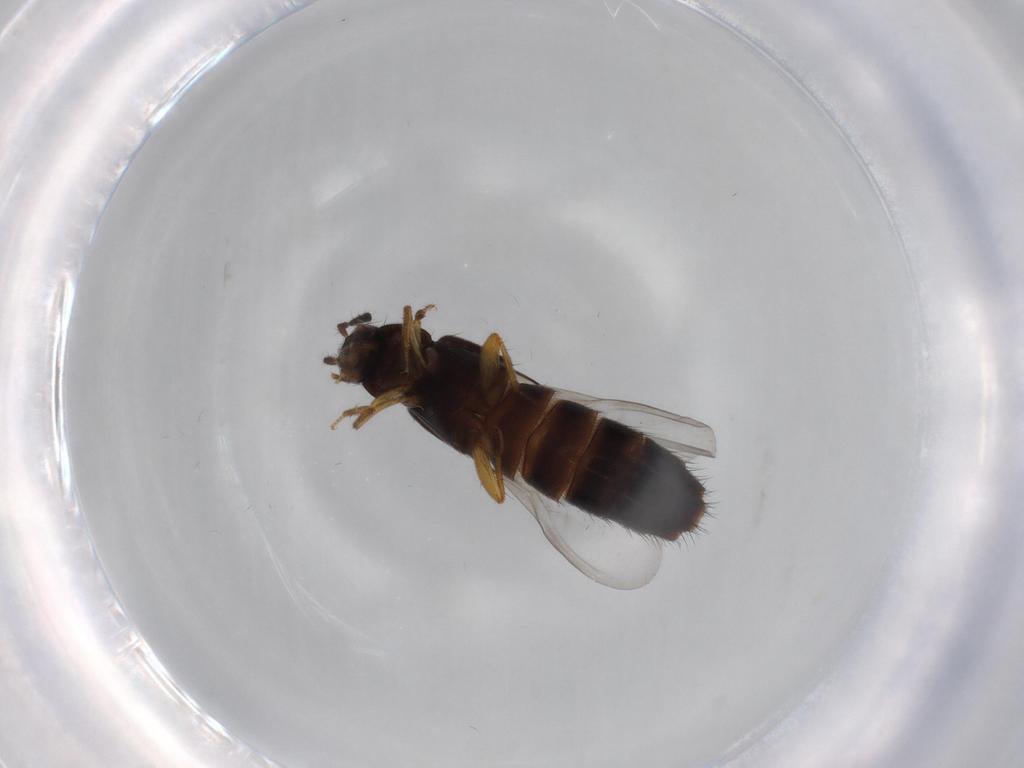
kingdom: Animalia
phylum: Arthropoda
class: Insecta
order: Coleoptera
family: Staphylinidae
